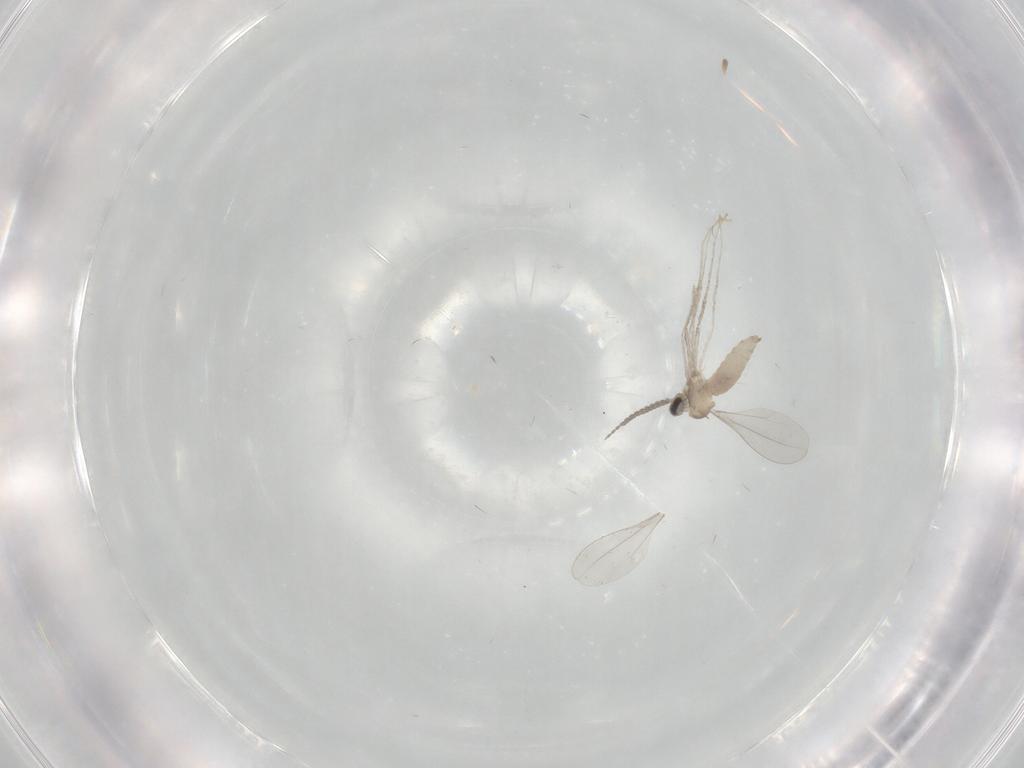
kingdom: Animalia
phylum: Arthropoda
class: Insecta
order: Diptera
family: Cecidomyiidae
